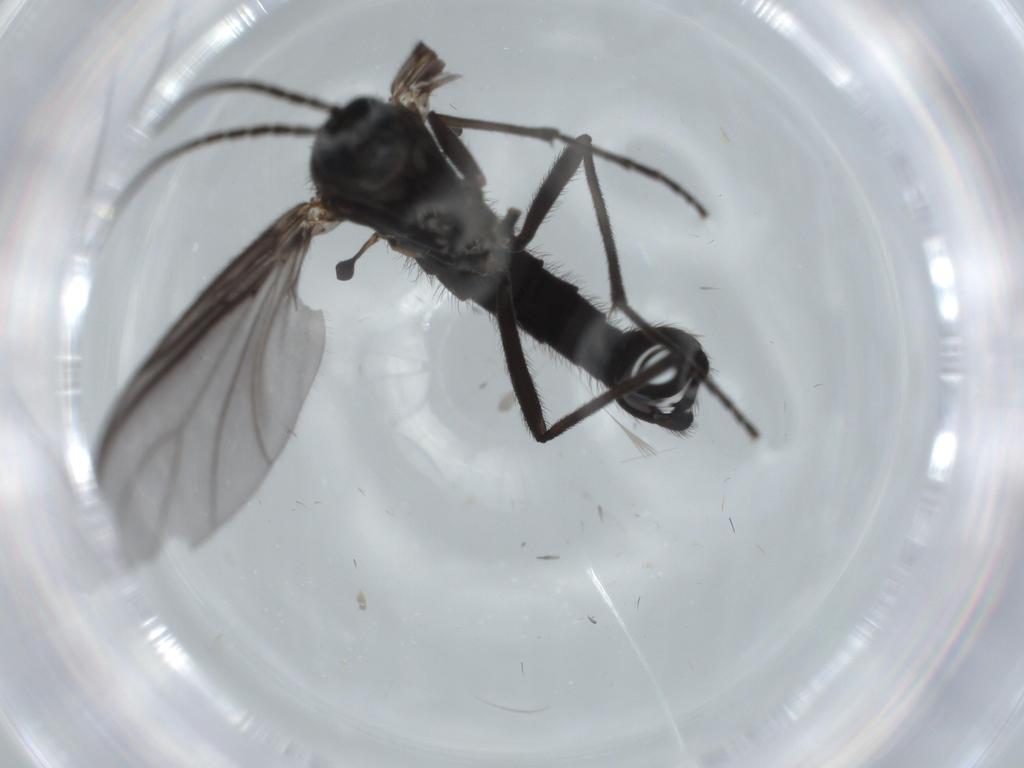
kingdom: Animalia
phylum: Arthropoda
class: Insecta
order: Diptera
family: Sciaridae
